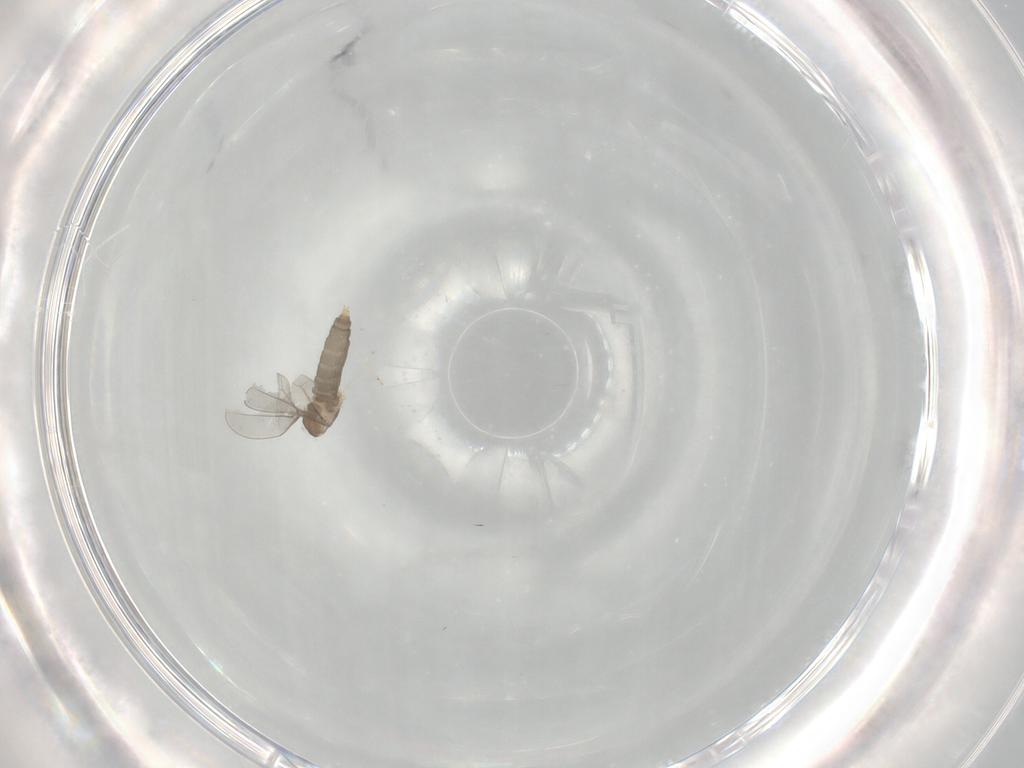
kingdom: Animalia
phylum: Arthropoda
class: Insecta
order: Diptera
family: Cecidomyiidae
